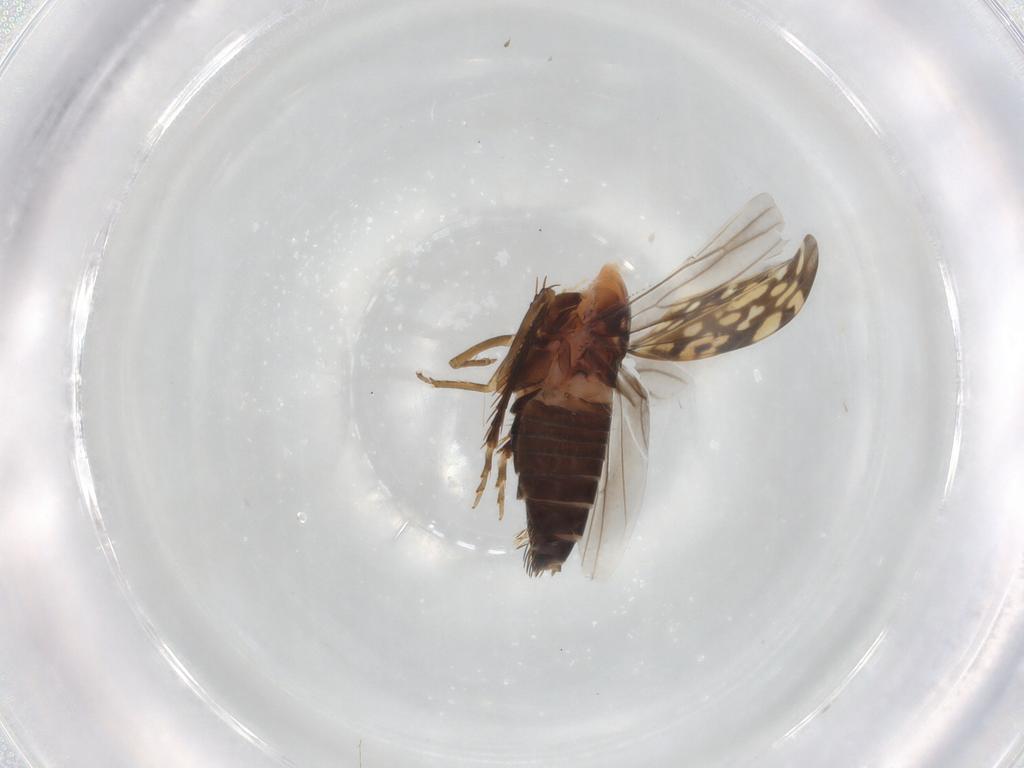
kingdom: Animalia
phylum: Arthropoda
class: Insecta
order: Hemiptera
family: Cicadellidae
